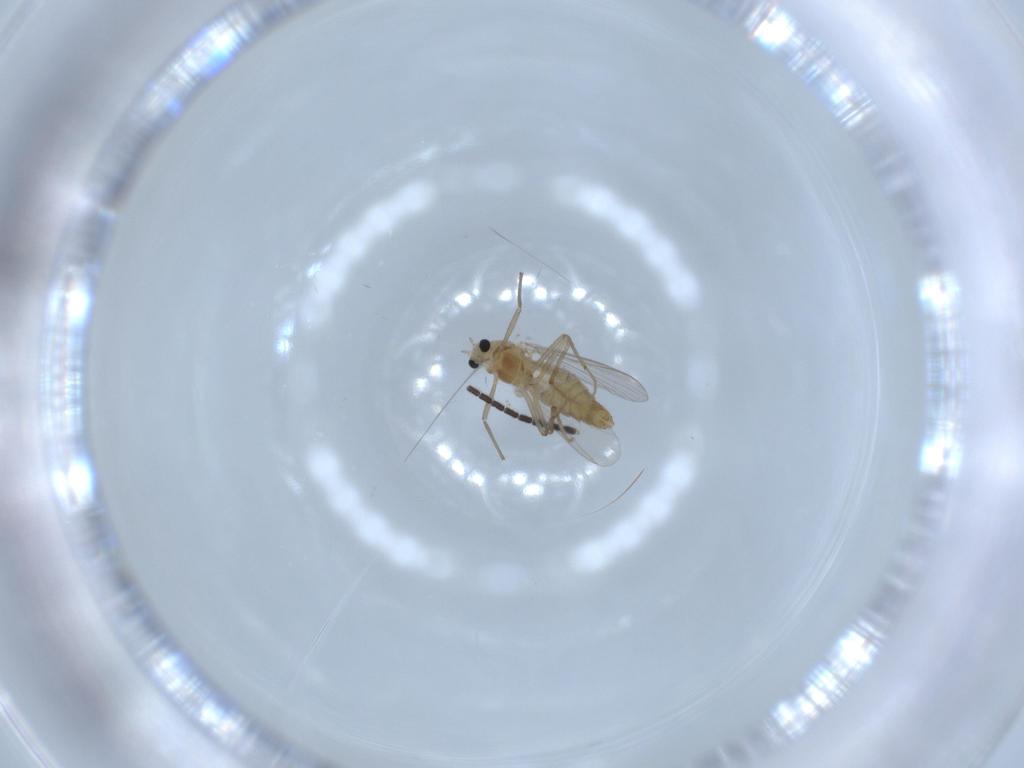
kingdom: Animalia
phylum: Arthropoda
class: Insecta
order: Diptera
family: Chironomidae
